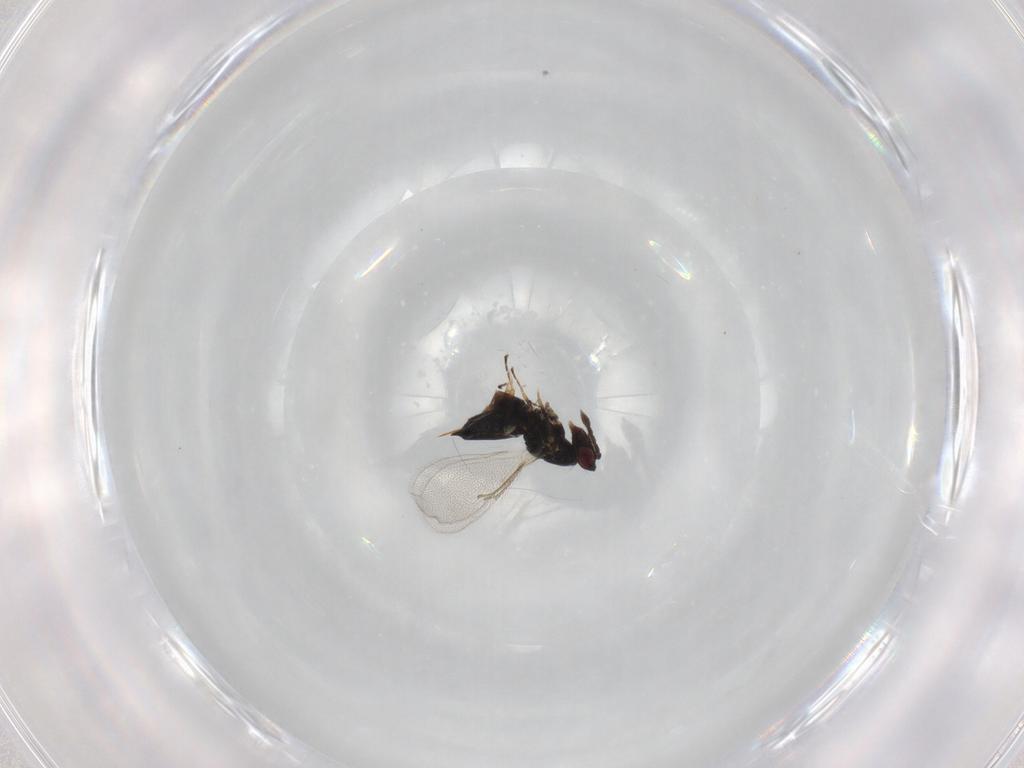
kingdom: Animalia
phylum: Arthropoda
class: Insecta
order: Hymenoptera
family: Eulophidae
